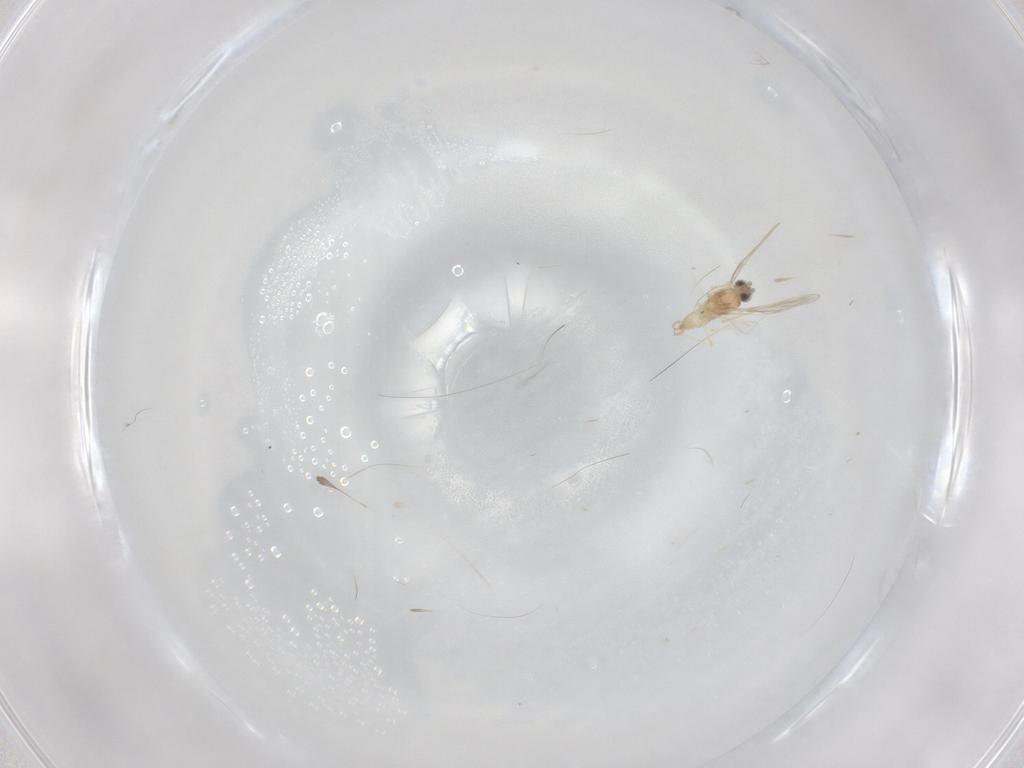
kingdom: Animalia
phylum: Arthropoda
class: Insecta
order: Diptera
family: Cecidomyiidae
